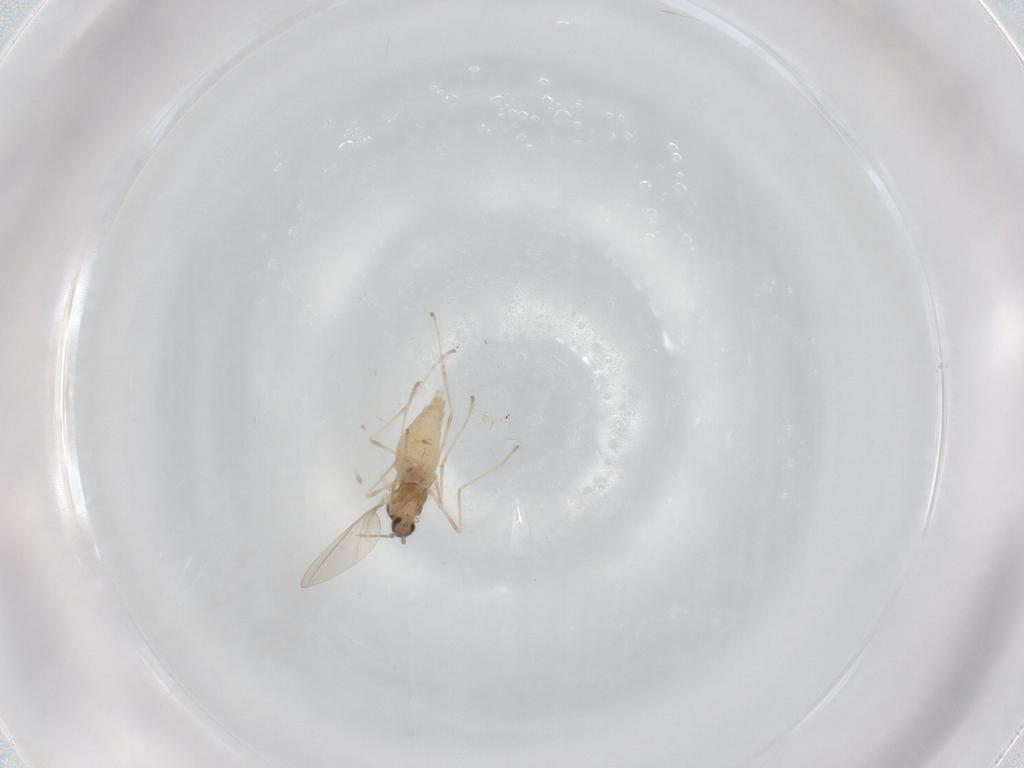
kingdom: Animalia
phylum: Arthropoda
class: Insecta
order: Diptera
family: Cecidomyiidae
